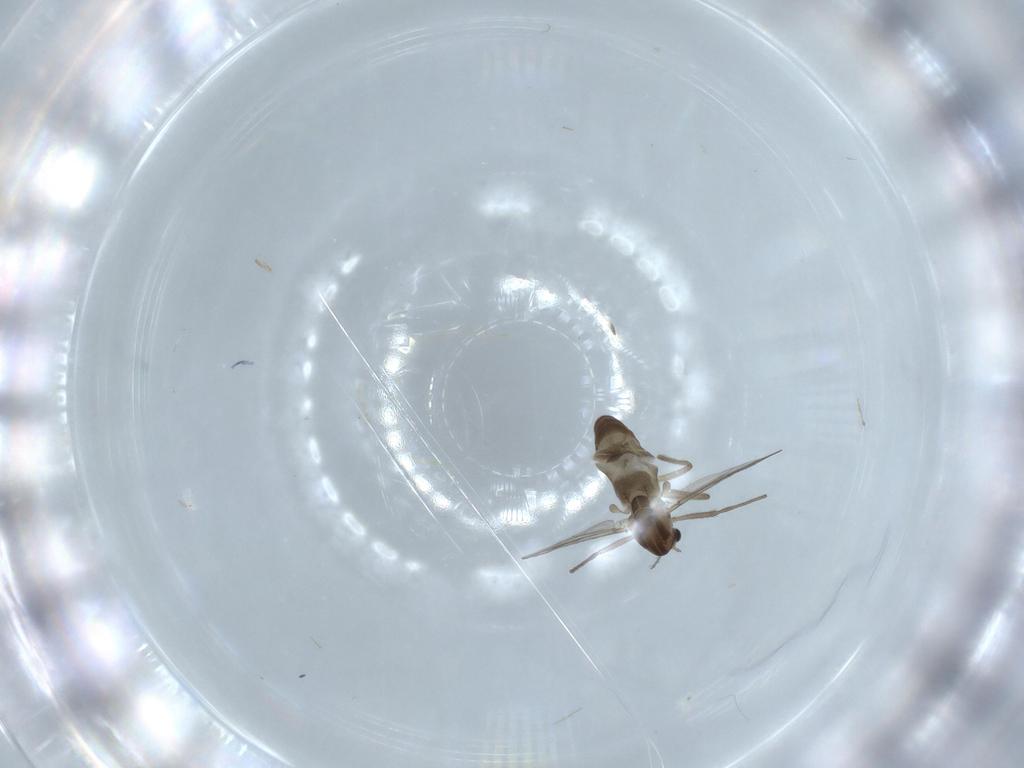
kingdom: Animalia
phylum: Arthropoda
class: Insecta
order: Diptera
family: Chironomidae
